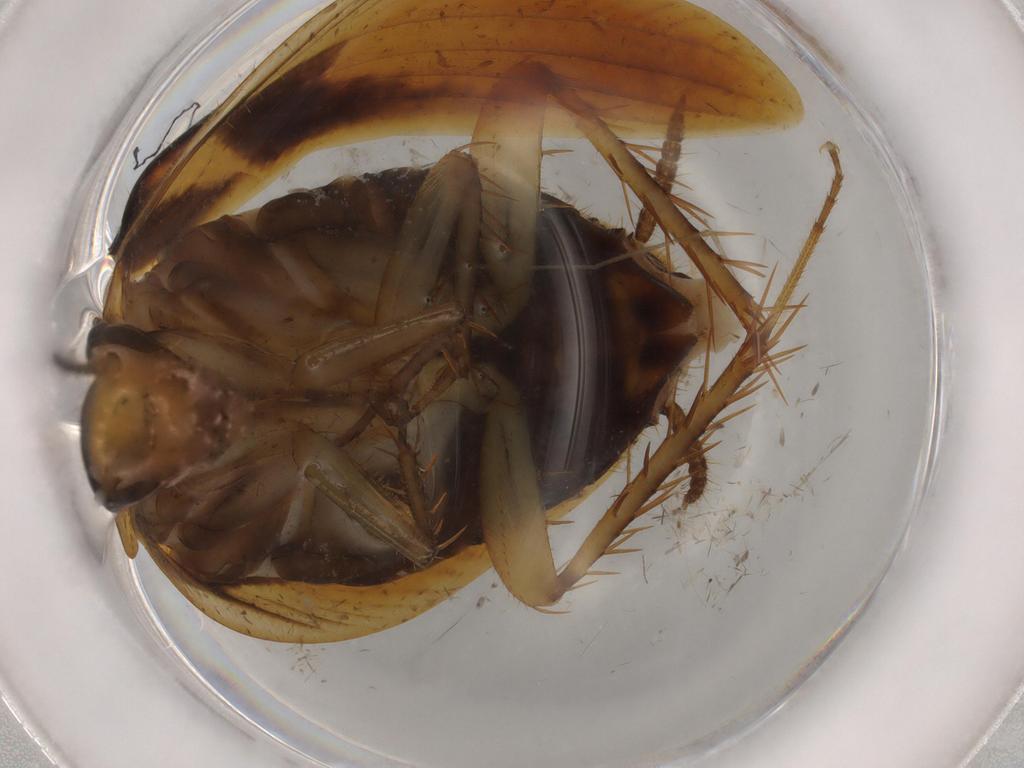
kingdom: Animalia
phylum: Arthropoda
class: Insecta
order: Blattodea
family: Ectobiidae
